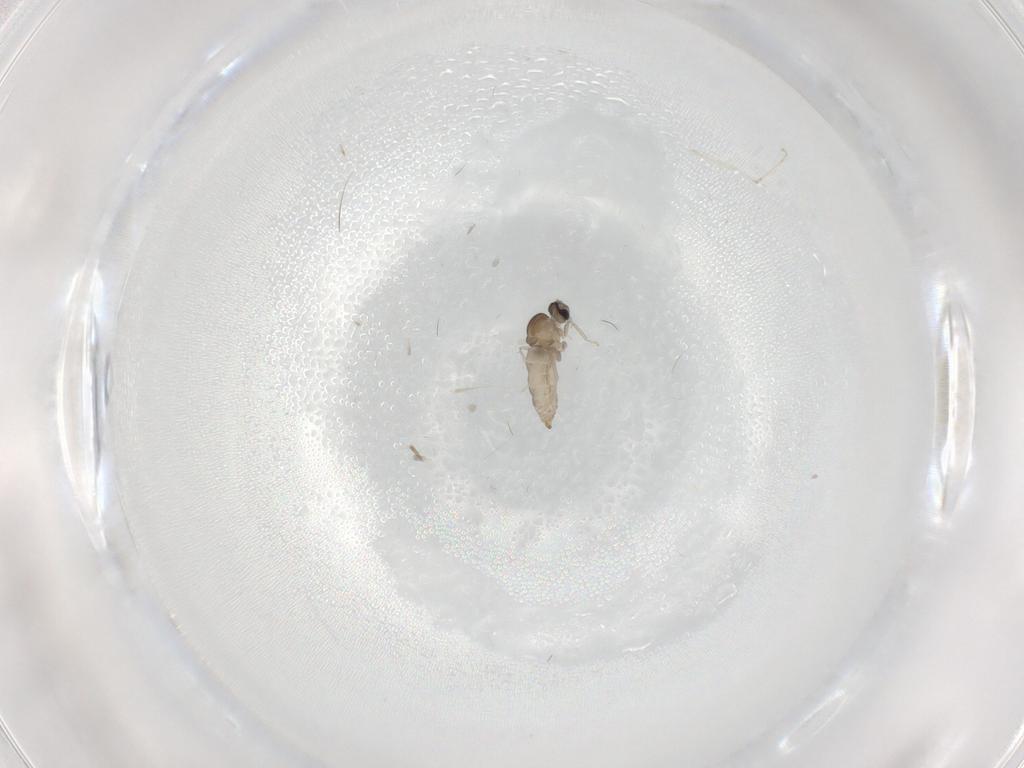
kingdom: Animalia
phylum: Arthropoda
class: Insecta
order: Diptera
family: Cecidomyiidae
